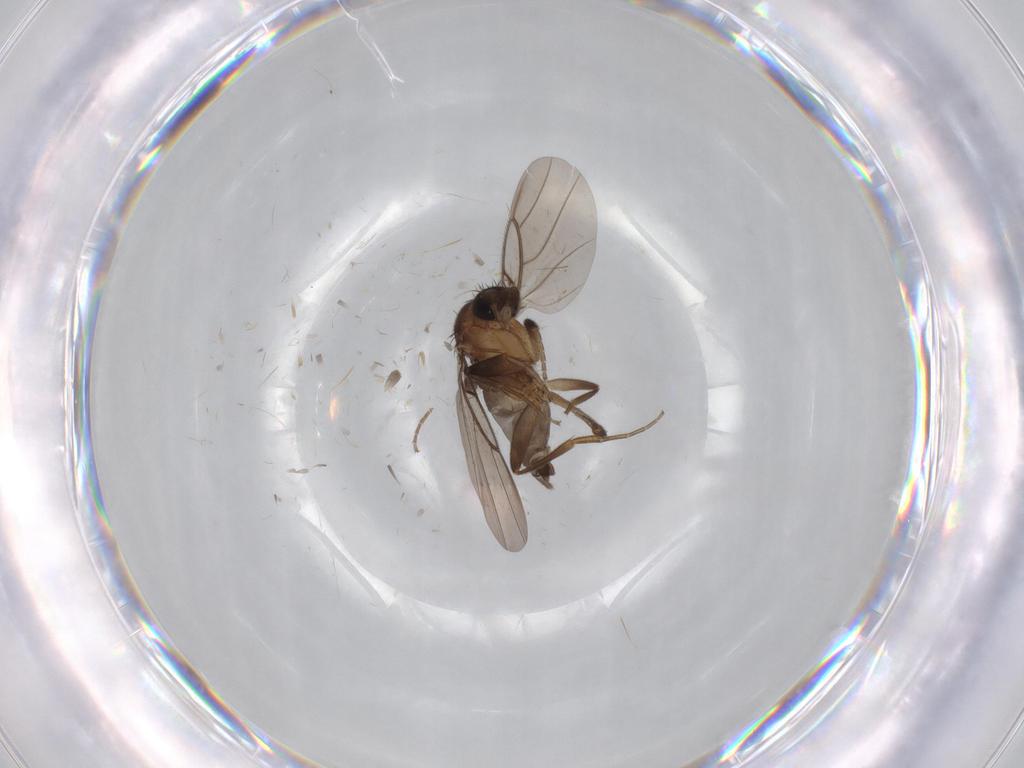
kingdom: Animalia
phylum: Arthropoda
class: Insecta
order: Diptera
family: Phoridae
